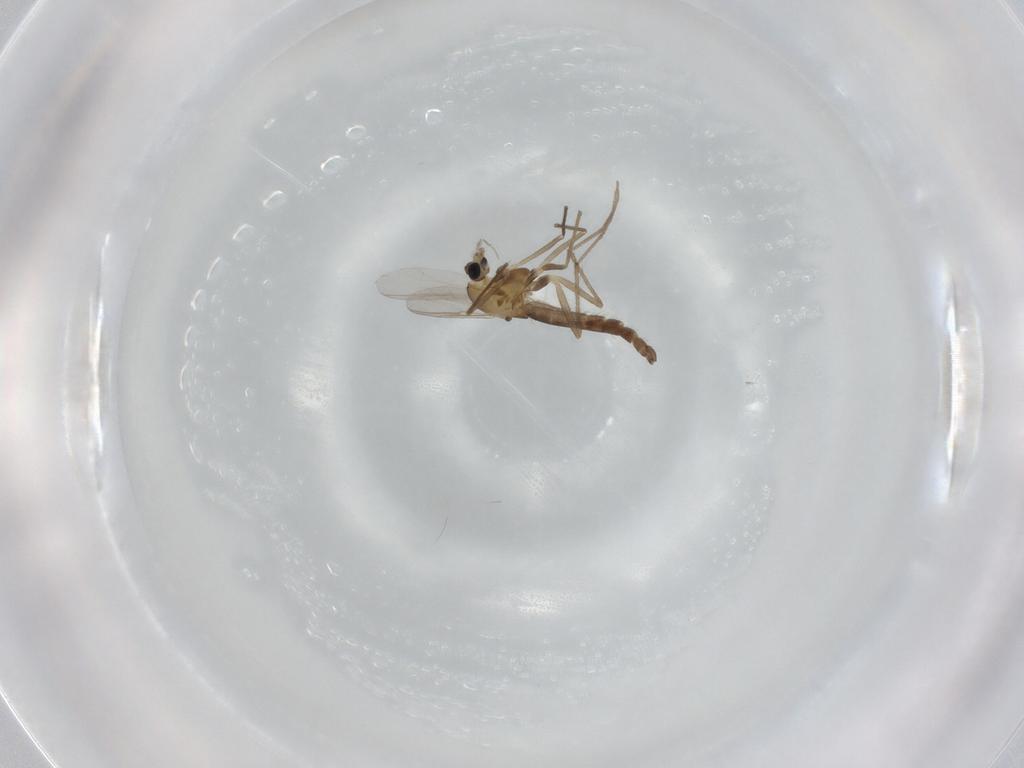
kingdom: Animalia
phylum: Arthropoda
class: Insecta
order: Diptera
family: Chironomidae
